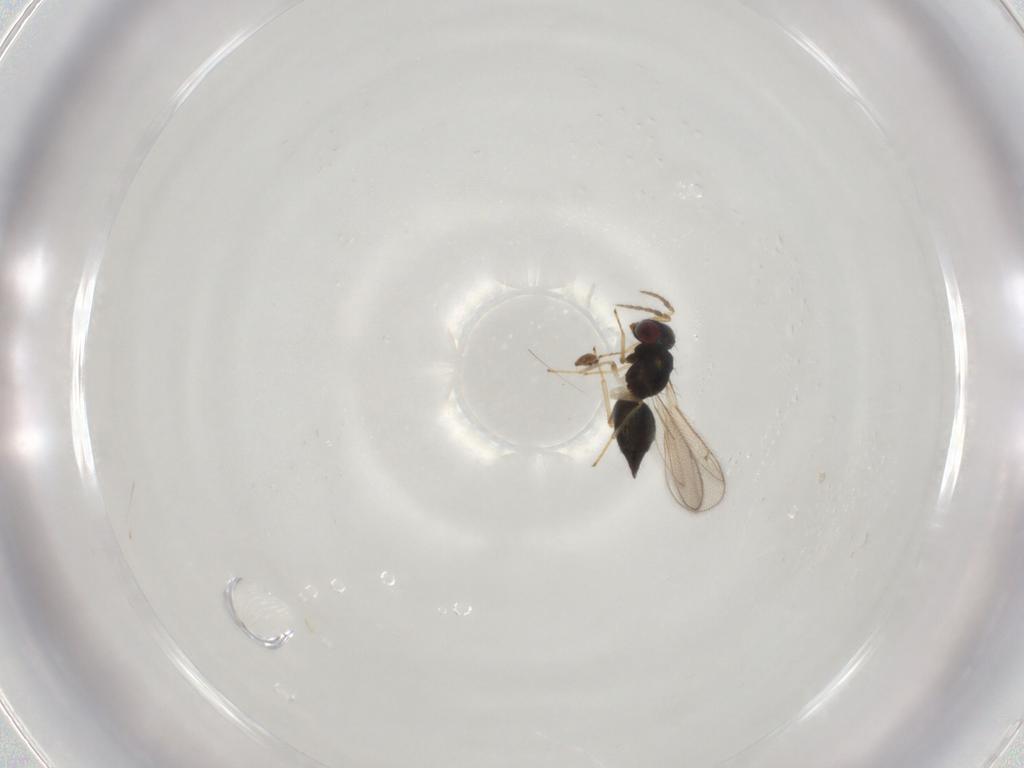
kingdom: Animalia
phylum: Arthropoda
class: Insecta
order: Hymenoptera
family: Eulophidae
